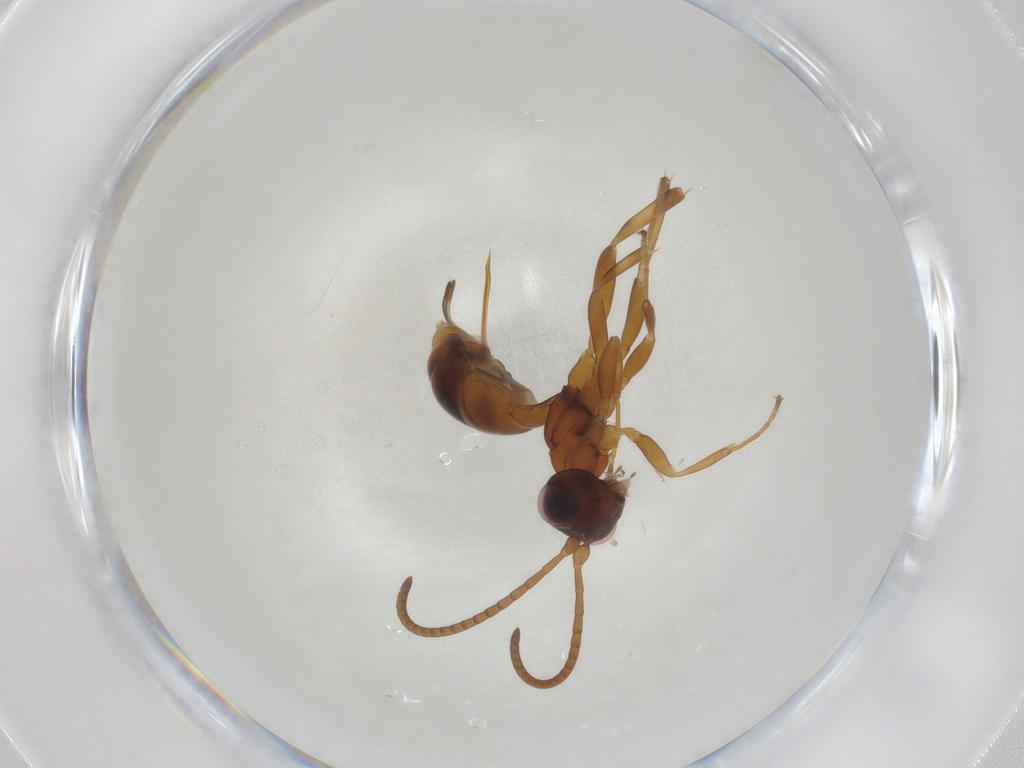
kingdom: Animalia
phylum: Arthropoda
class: Insecta
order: Hymenoptera
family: Ichneumonidae
